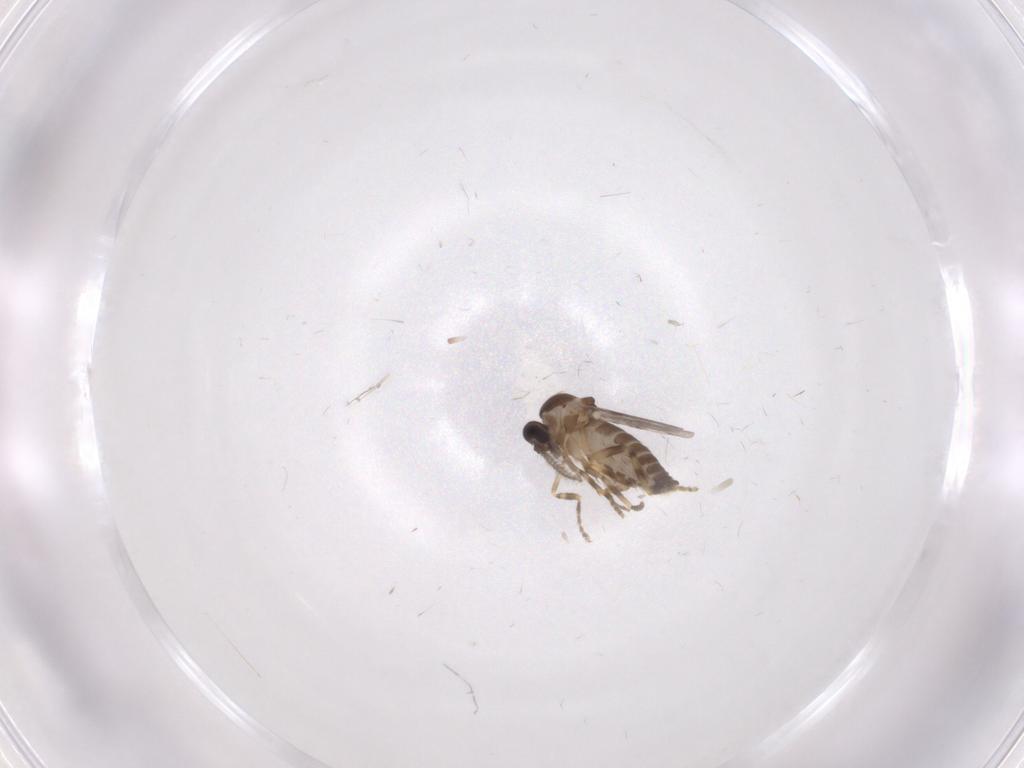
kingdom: Animalia
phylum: Arthropoda
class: Insecta
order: Diptera
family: Ceratopogonidae
